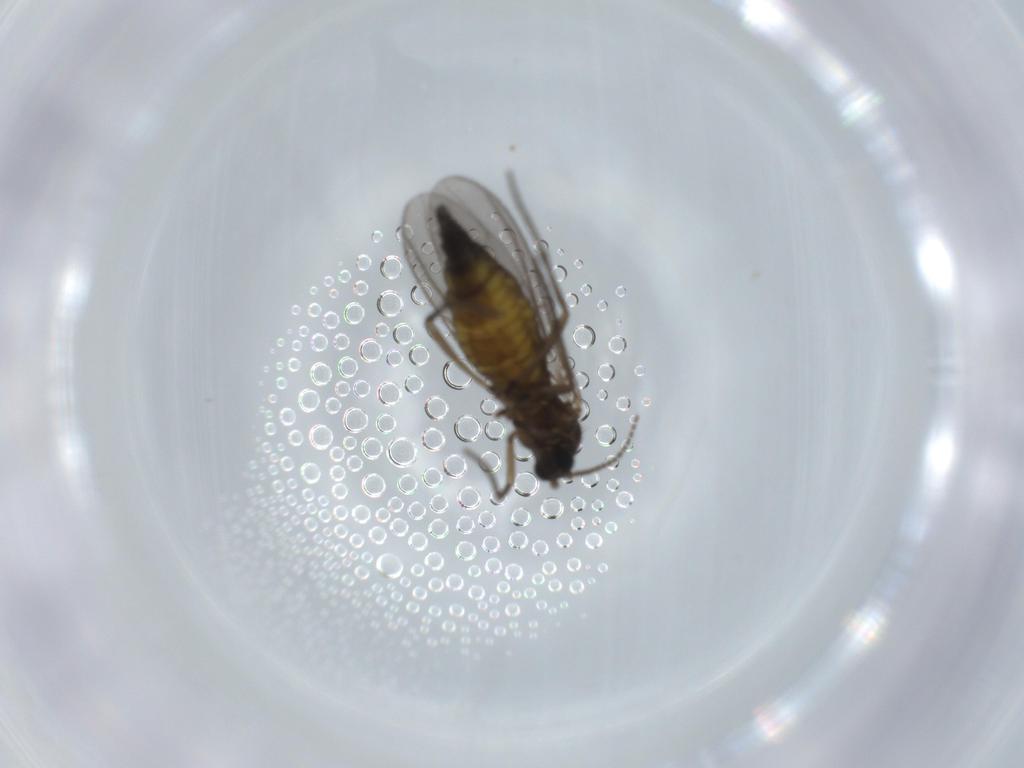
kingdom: Animalia
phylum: Arthropoda
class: Insecta
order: Diptera
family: Sciaridae
